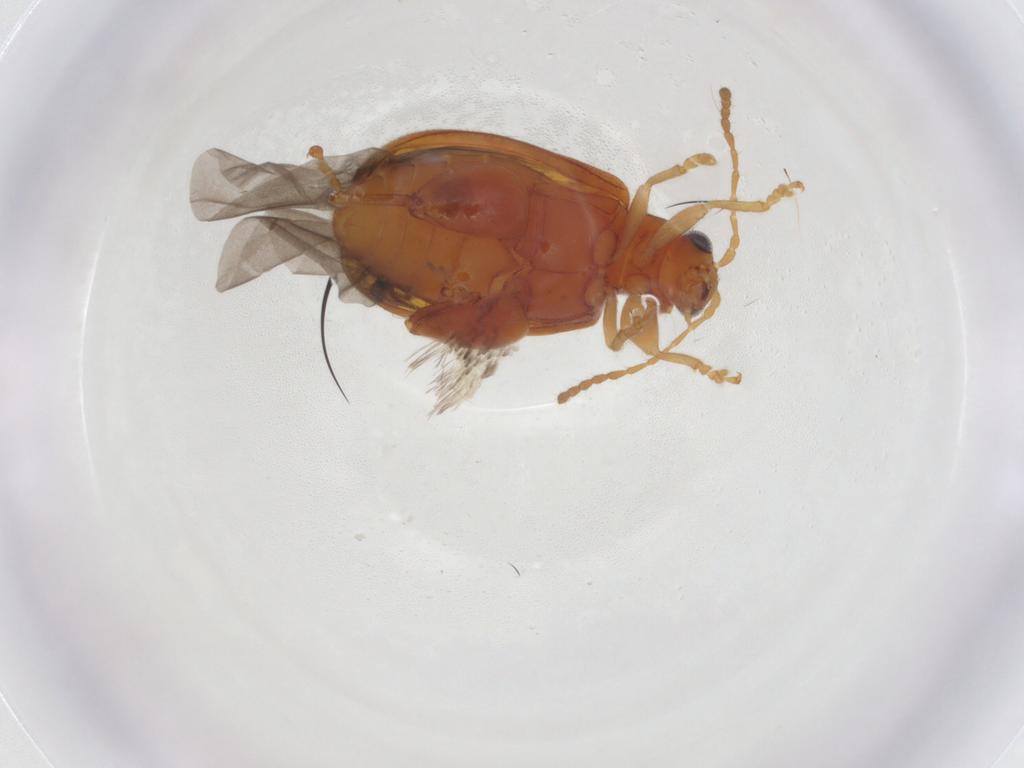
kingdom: Animalia
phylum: Arthropoda
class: Insecta
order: Coleoptera
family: Chrysomelidae
